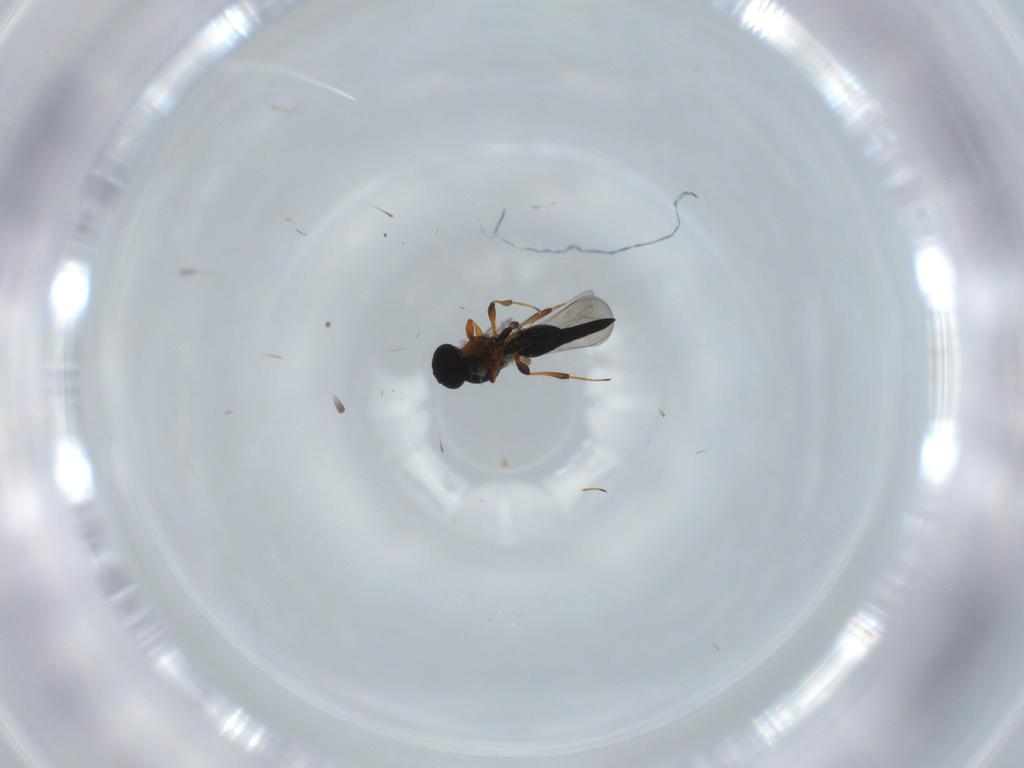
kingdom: Animalia
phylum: Arthropoda
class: Insecta
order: Hymenoptera
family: Platygastridae
